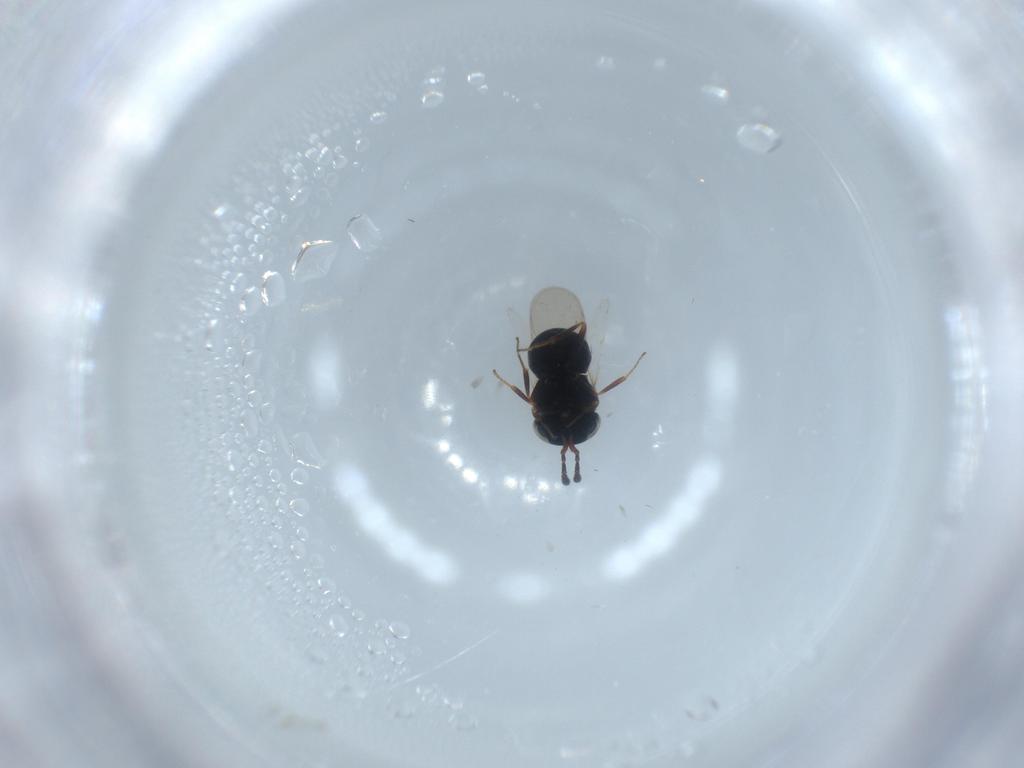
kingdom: Animalia
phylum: Arthropoda
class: Insecta
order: Hymenoptera
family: Scelionidae
